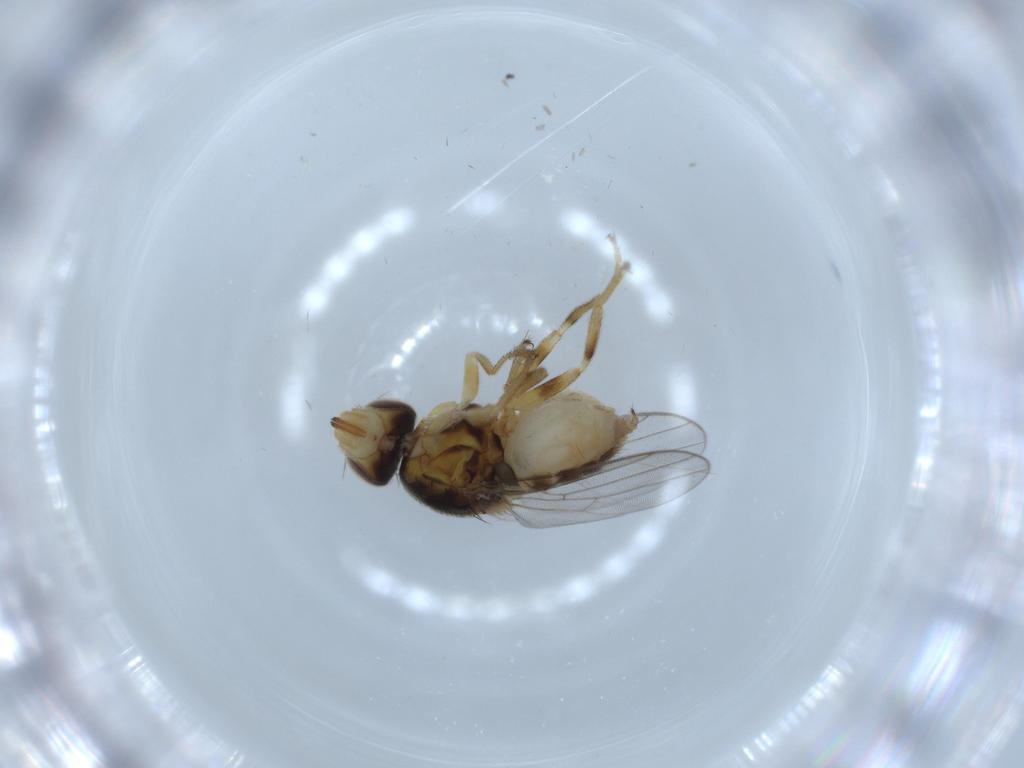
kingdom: Animalia
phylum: Arthropoda
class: Insecta
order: Diptera
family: Chloropidae
